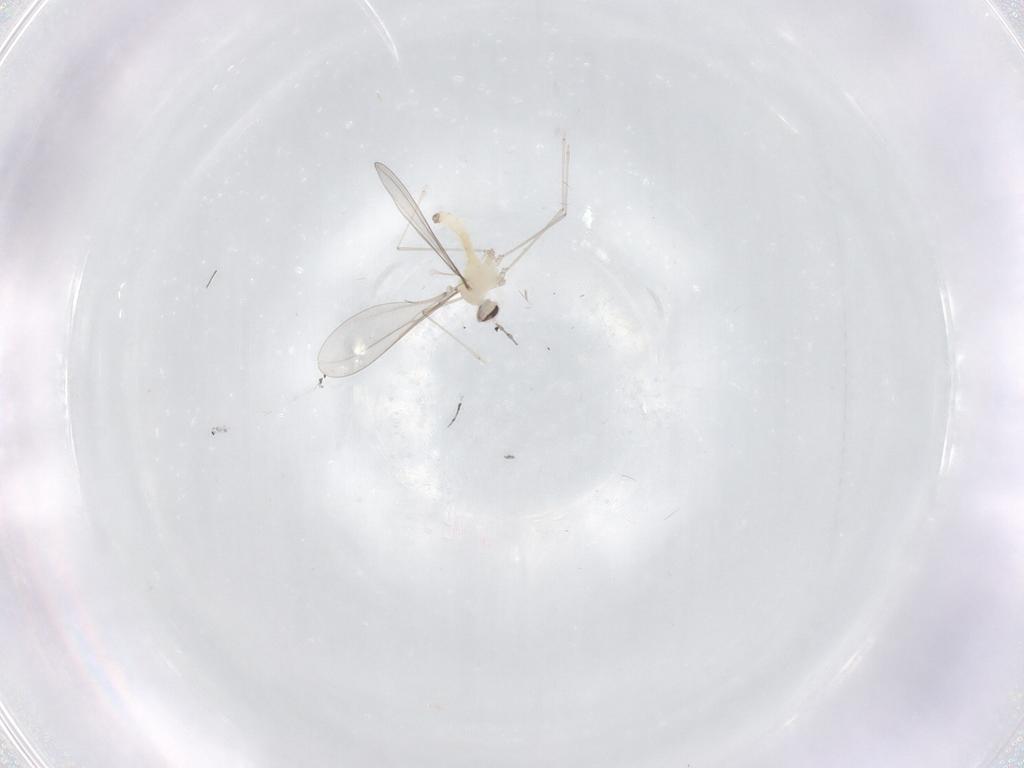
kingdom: Animalia
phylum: Arthropoda
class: Insecta
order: Diptera
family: Cecidomyiidae
